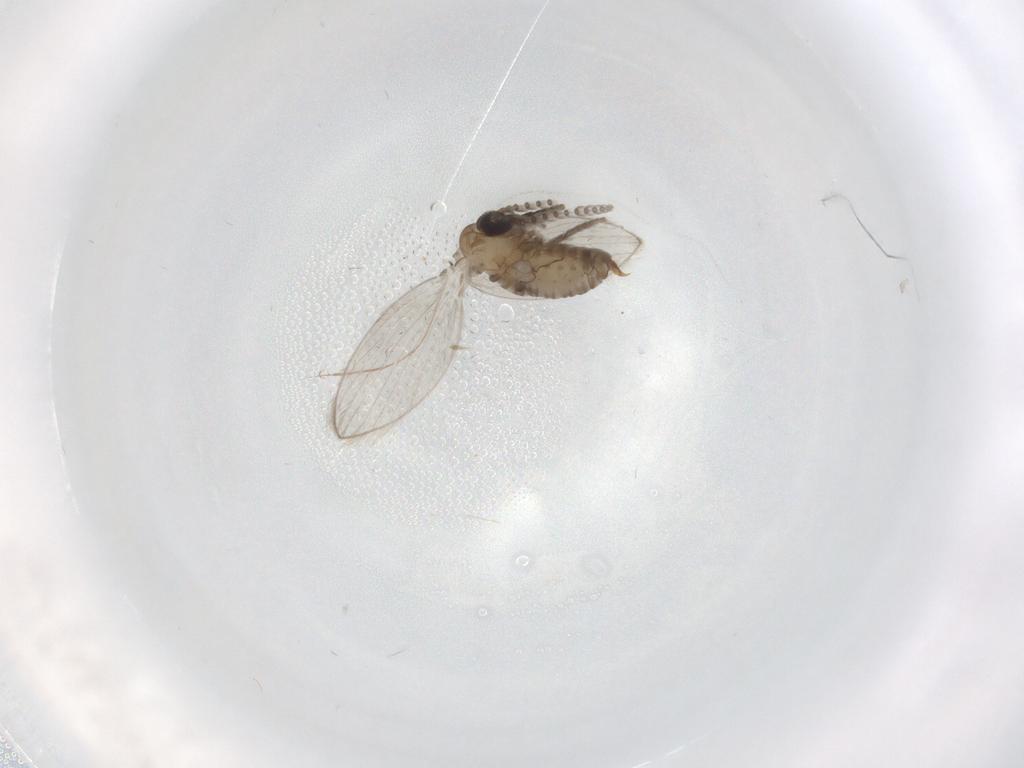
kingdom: Animalia
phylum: Arthropoda
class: Insecta
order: Diptera
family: Psychodidae
